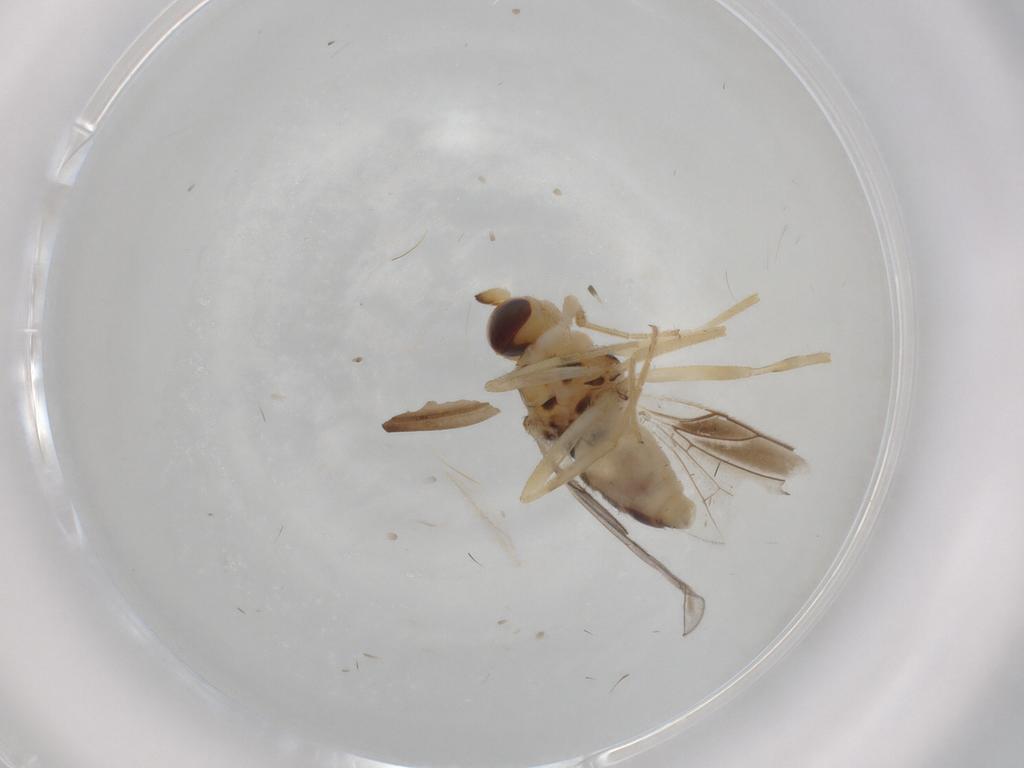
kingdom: Animalia
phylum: Arthropoda
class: Insecta
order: Diptera
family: Chloropidae
